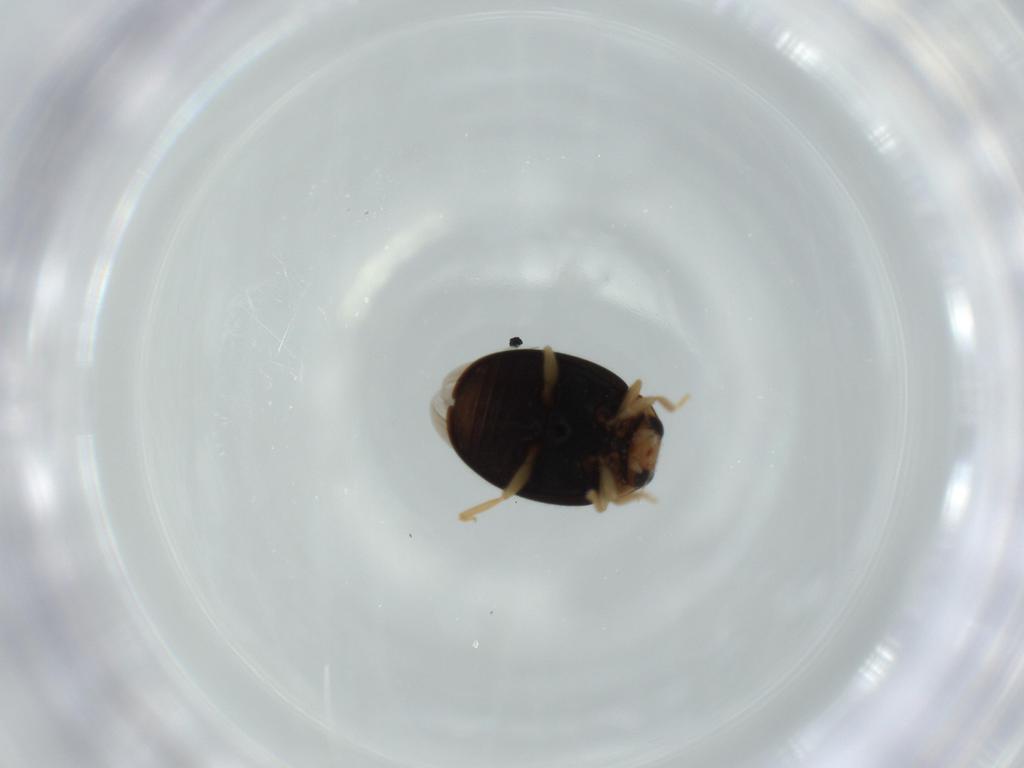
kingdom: Animalia
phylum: Arthropoda
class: Insecta
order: Coleoptera
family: Coccinellidae
